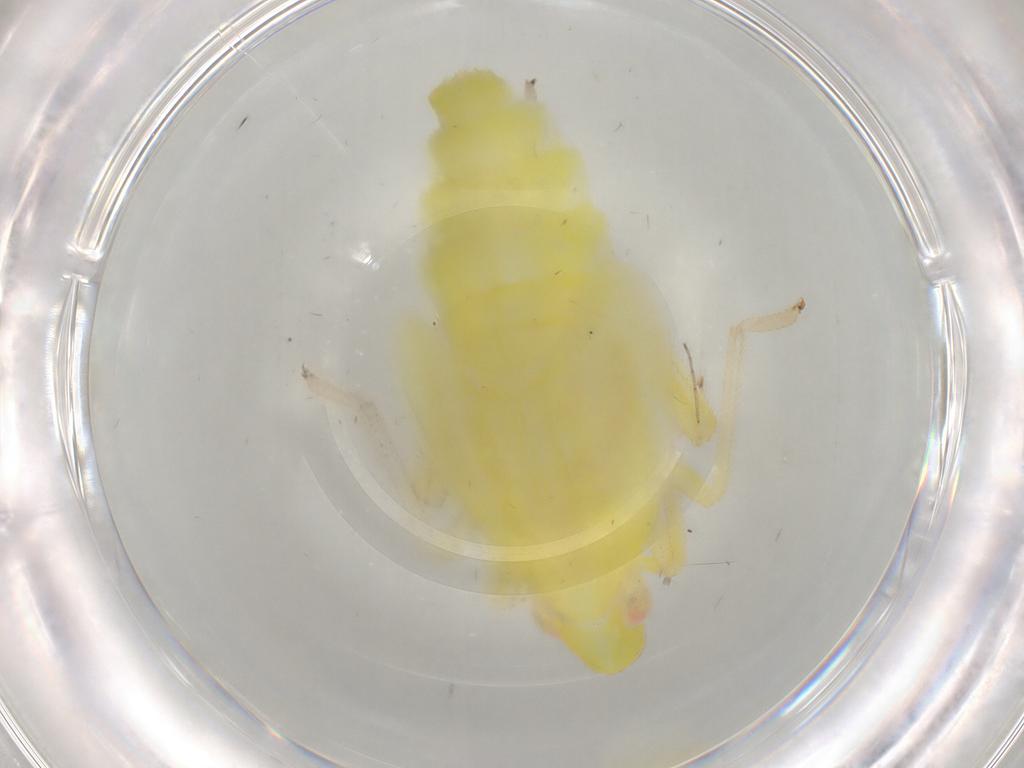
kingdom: Animalia
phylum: Arthropoda
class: Insecta
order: Hemiptera
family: Tropiduchidae
